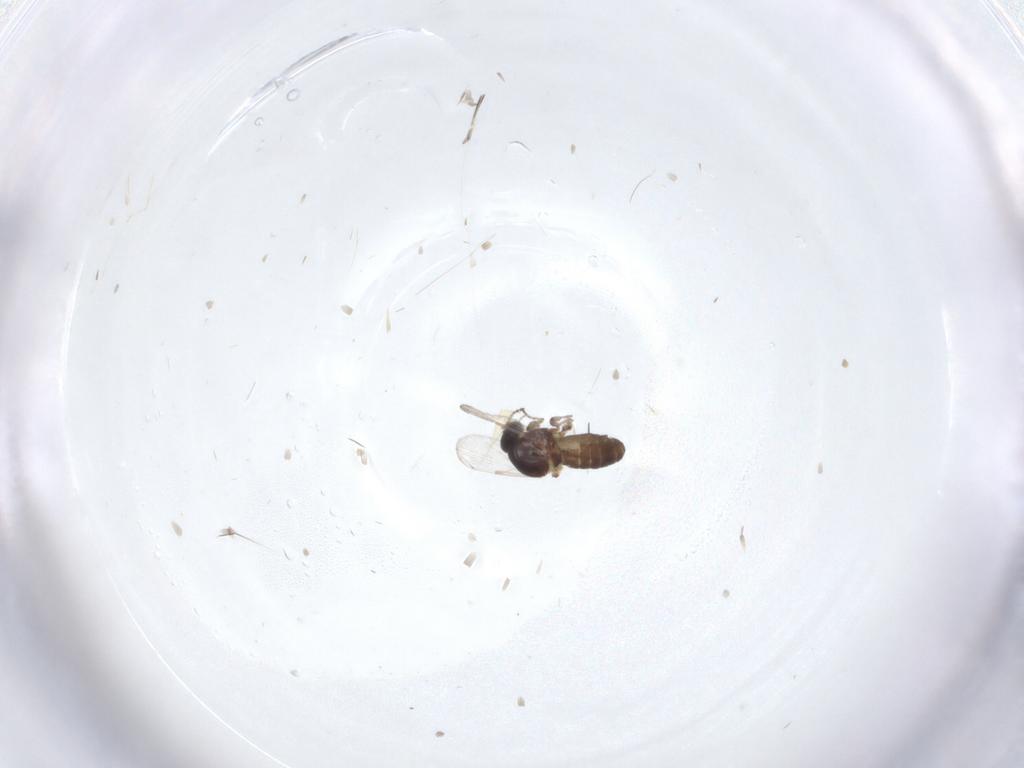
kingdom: Animalia
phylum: Arthropoda
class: Insecta
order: Diptera
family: Ceratopogonidae
